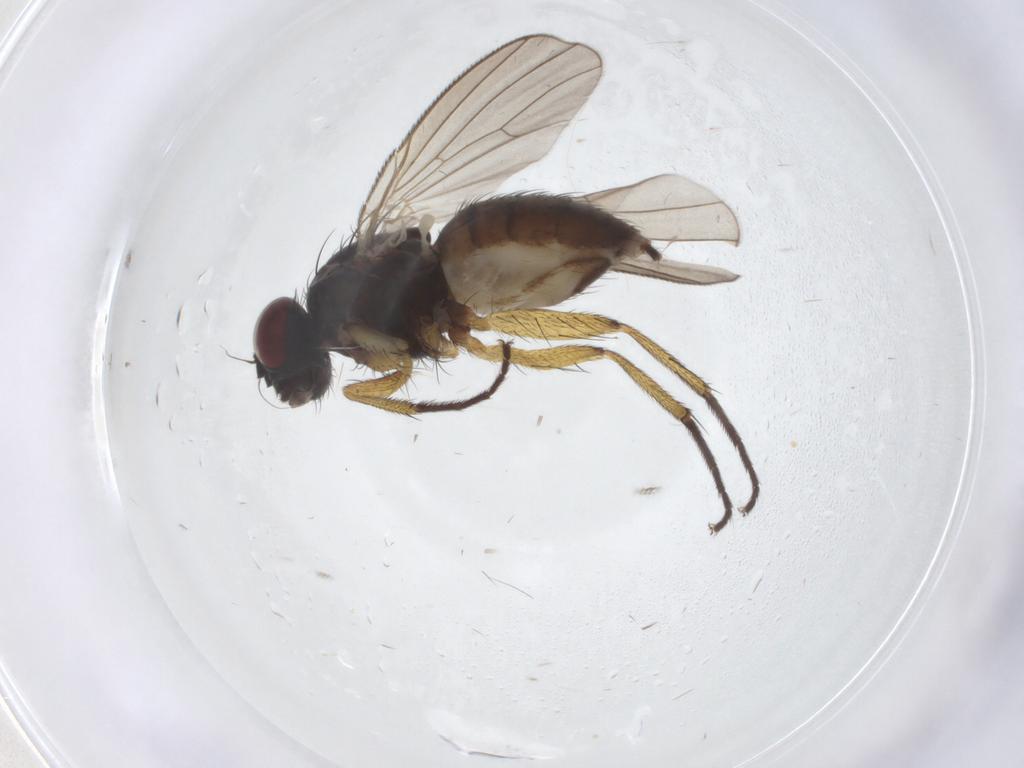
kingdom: Animalia
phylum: Arthropoda
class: Insecta
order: Diptera
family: Muscidae
